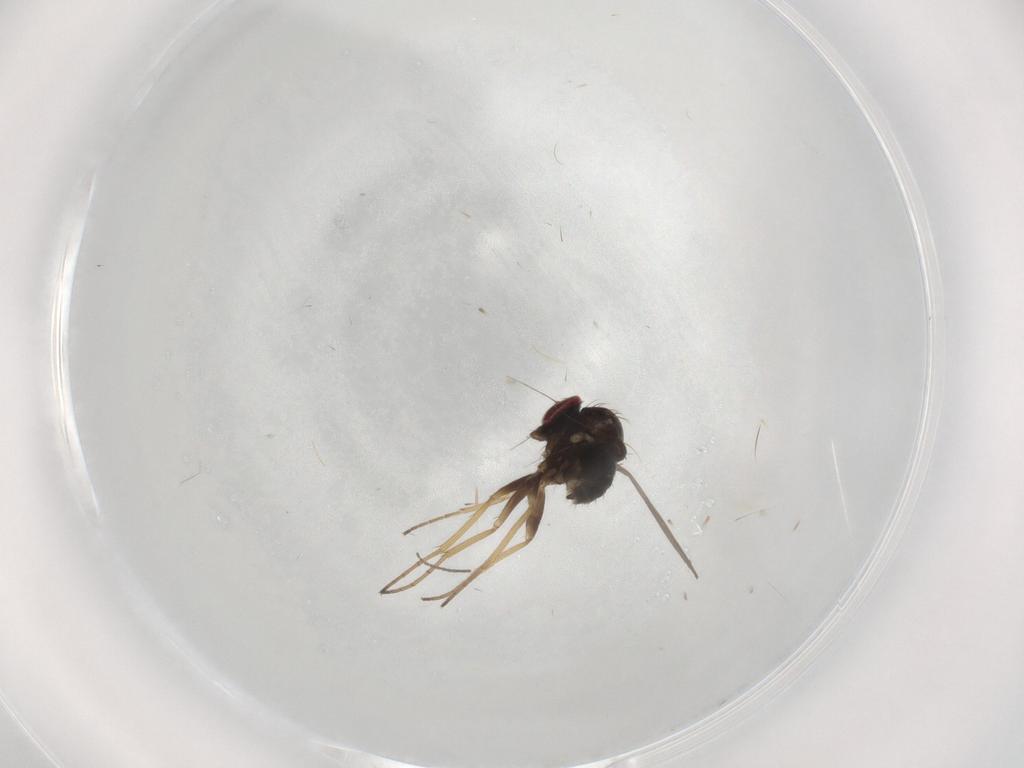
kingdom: Animalia
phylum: Arthropoda
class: Insecta
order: Diptera
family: Dolichopodidae
